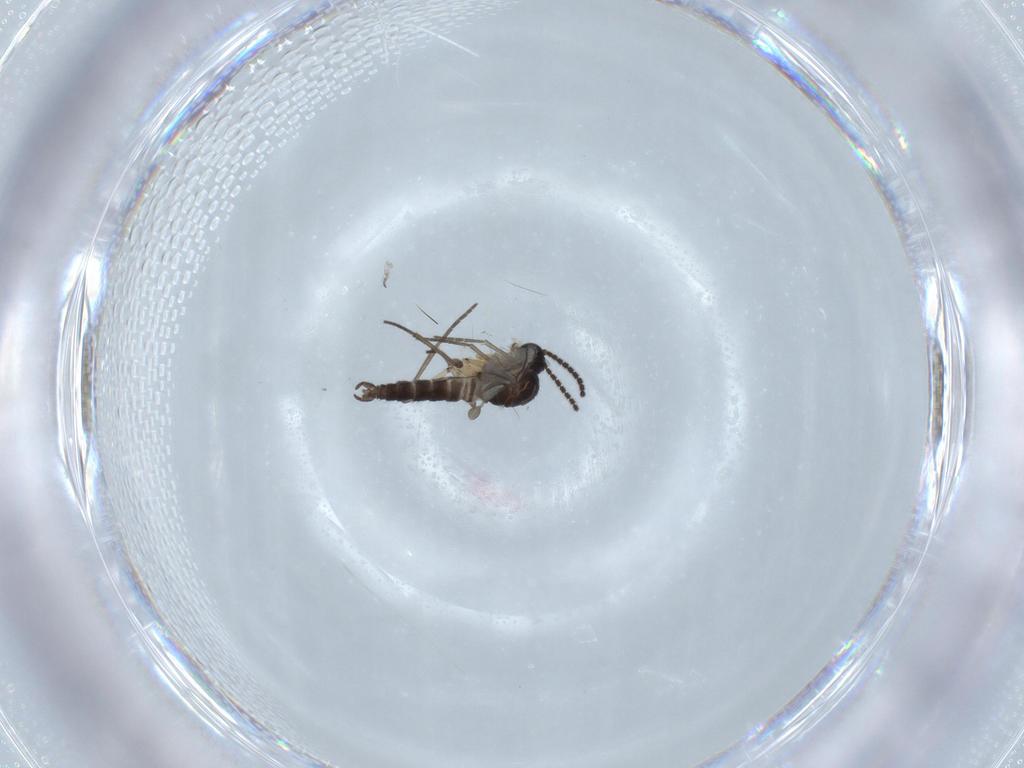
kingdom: Animalia
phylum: Arthropoda
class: Insecta
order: Diptera
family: Sciaridae
